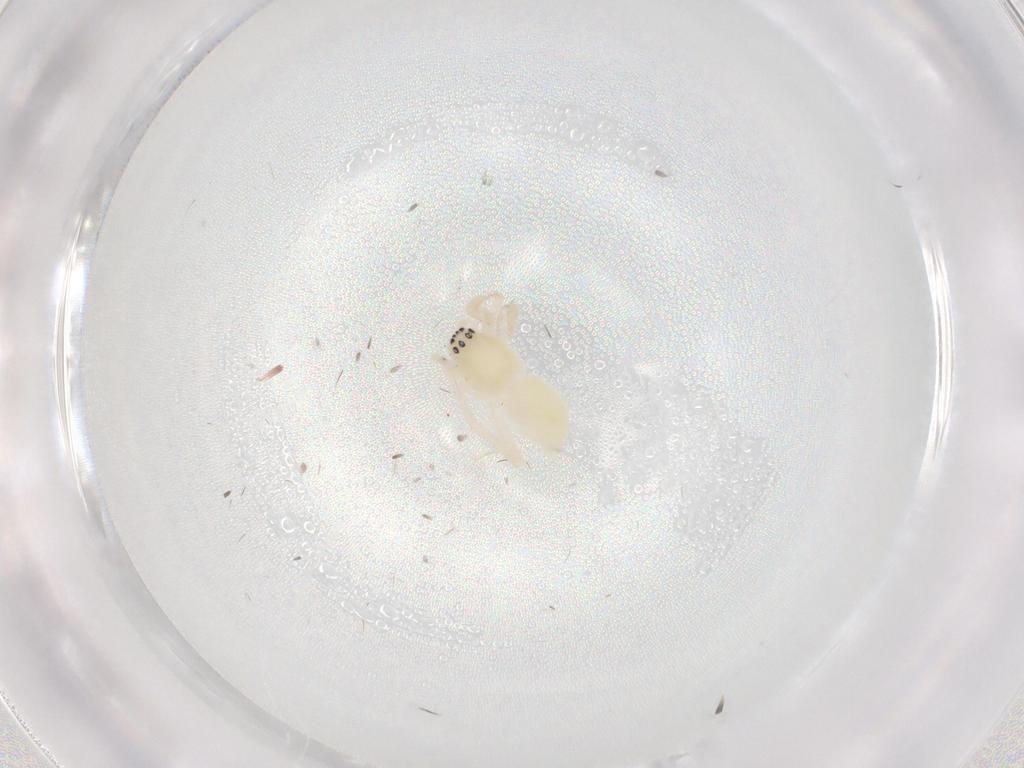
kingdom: Animalia
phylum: Arthropoda
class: Arachnida
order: Araneae
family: Anyphaenidae
